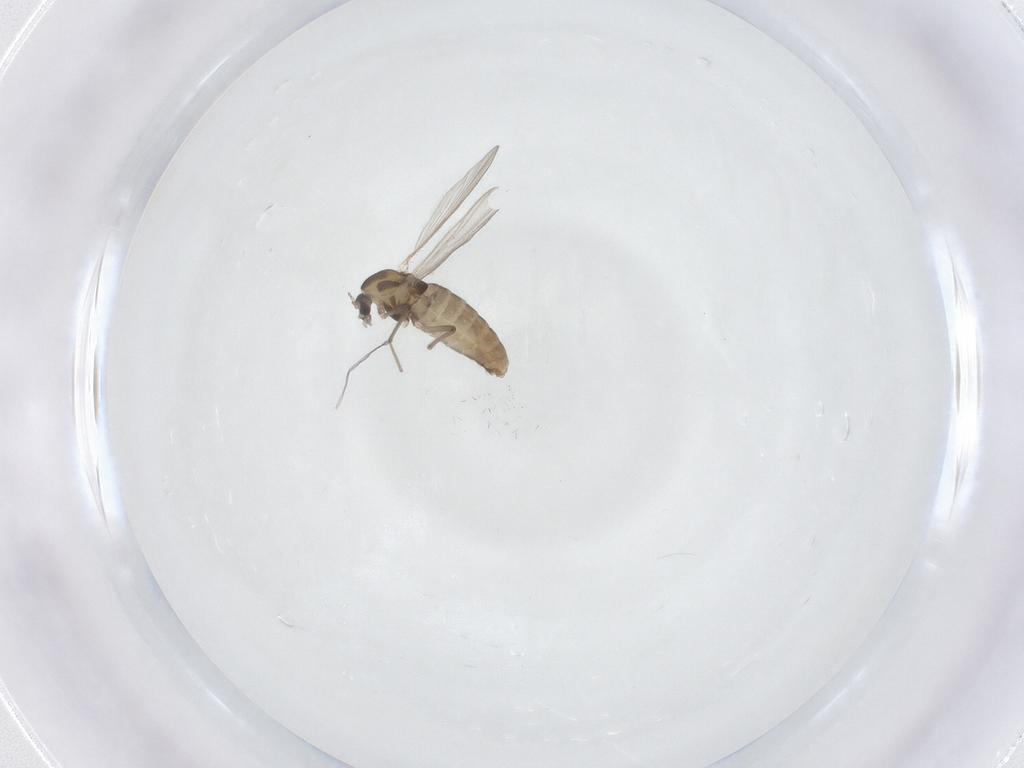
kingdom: Animalia
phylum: Arthropoda
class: Insecta
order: Diptera
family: Chironomidae
